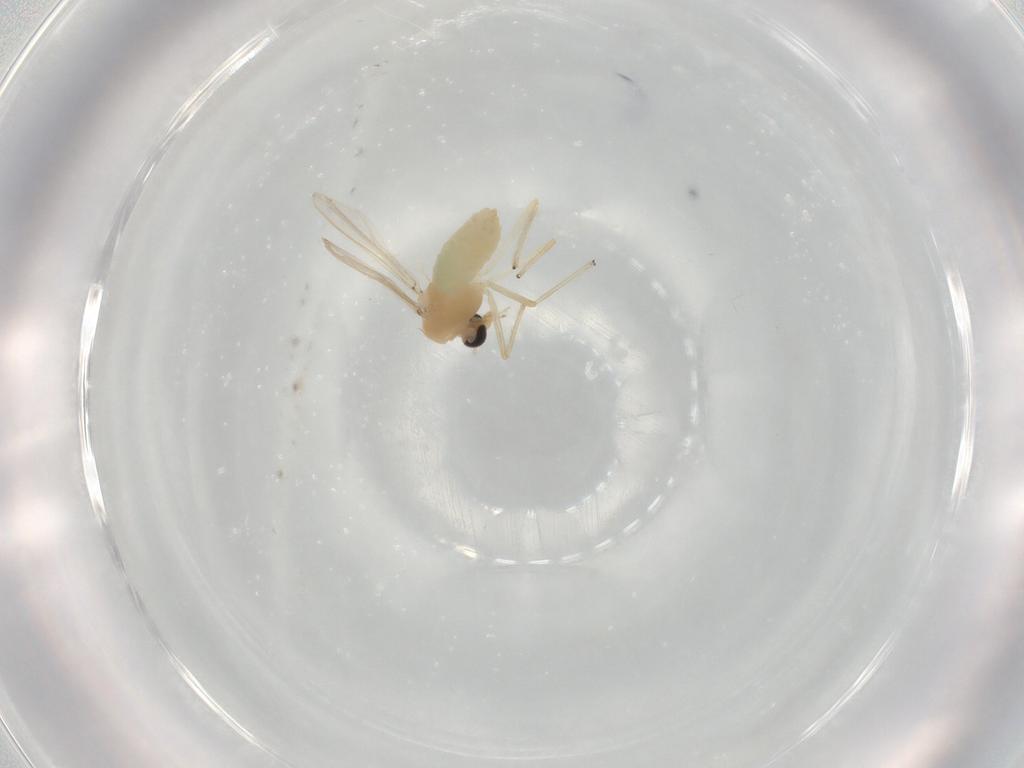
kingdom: Animalia
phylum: Arthropoda
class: Insecta
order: Diptera
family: Chironomidae
